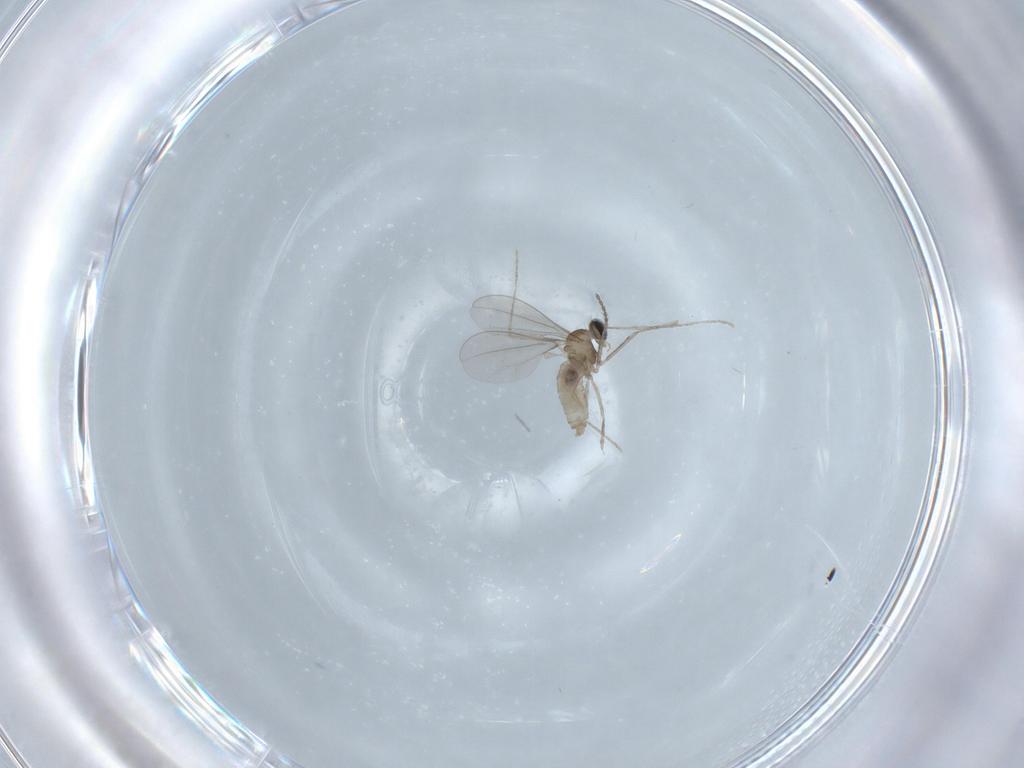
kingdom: Animalia
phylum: Arthropoda
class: Insecta
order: Diptera
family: Cecidomyiidae
